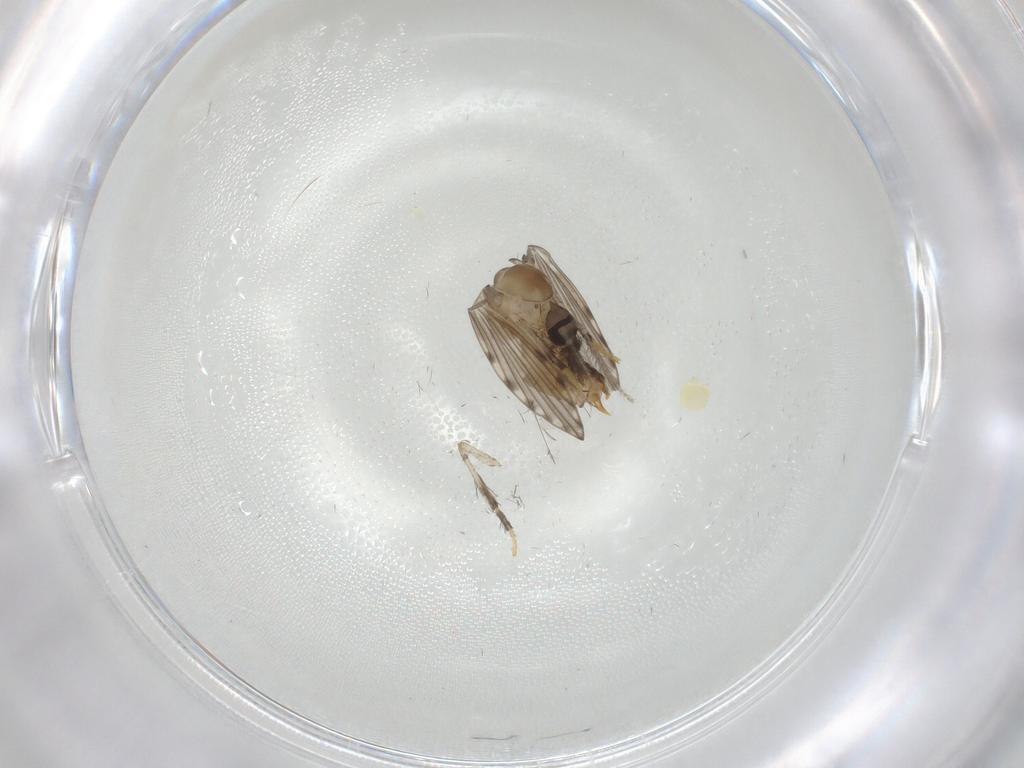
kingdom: Animalia
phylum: Arthropoda
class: Insecta
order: Diptera
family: Psychodidae
